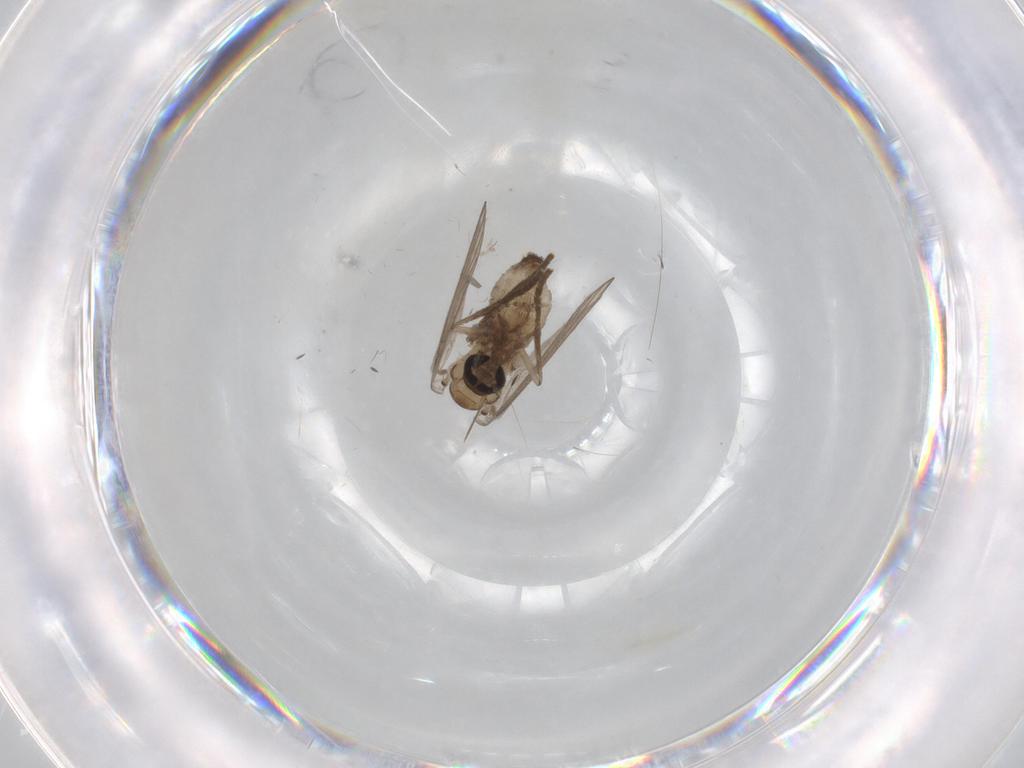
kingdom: Animalia
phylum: Arthropoda
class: Insecta
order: Diptera
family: Psychodidae
